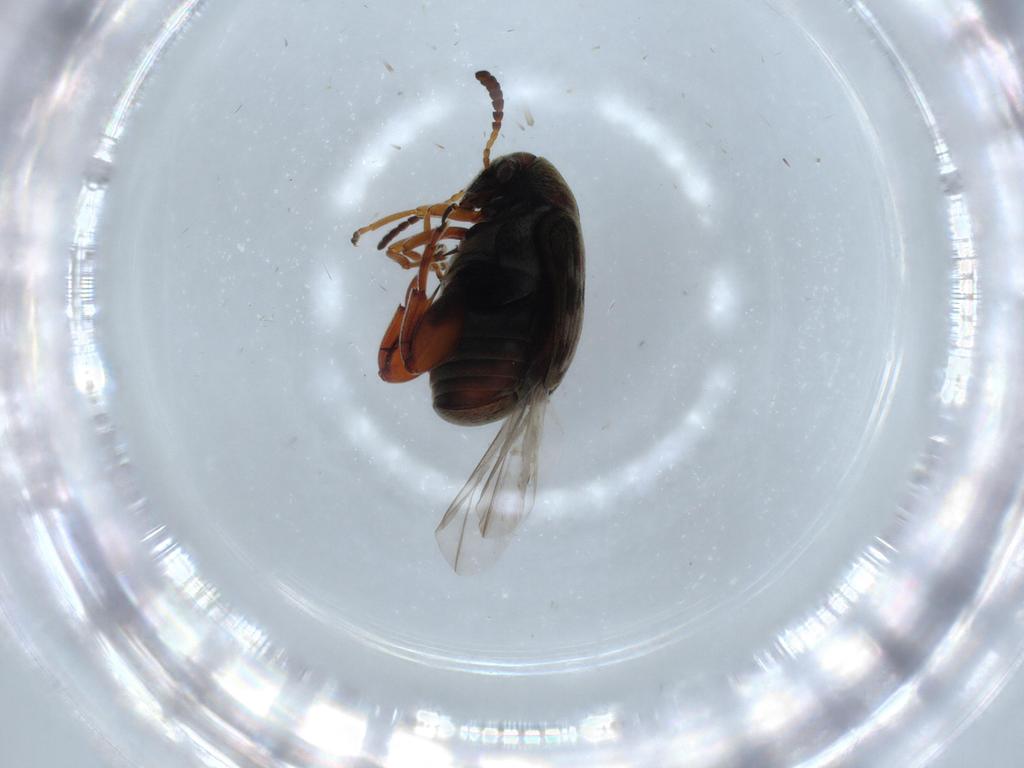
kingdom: Animalia
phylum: Arthropoda
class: Insecta
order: Coleoptera
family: Chrysomelidae
